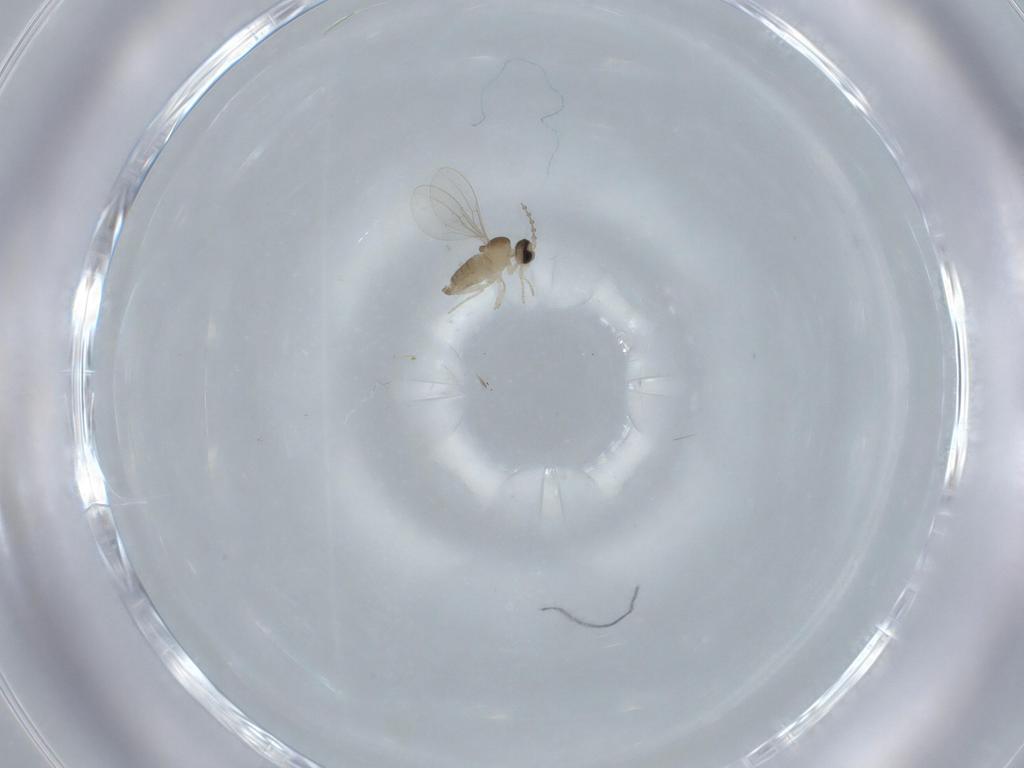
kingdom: Animalia
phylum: Arthropoda
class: Insecta
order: Diptera
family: Cecidomyiidae
